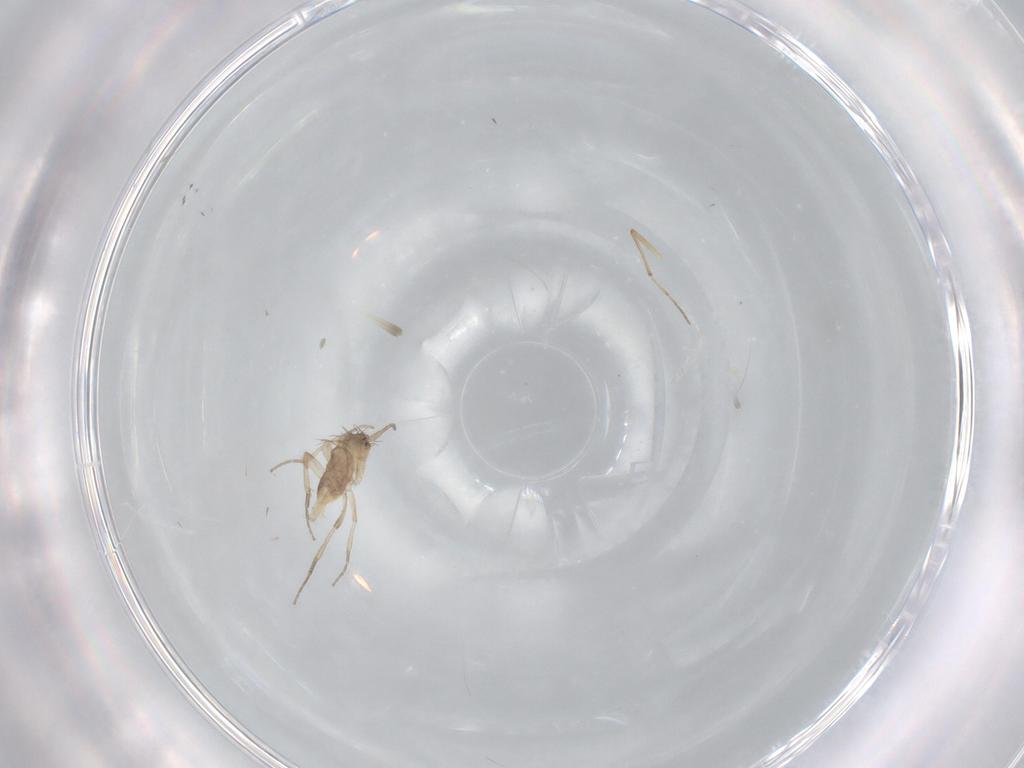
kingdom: Animalia
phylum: Arthropoda
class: Insecta
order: Diptera
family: Phoridae
